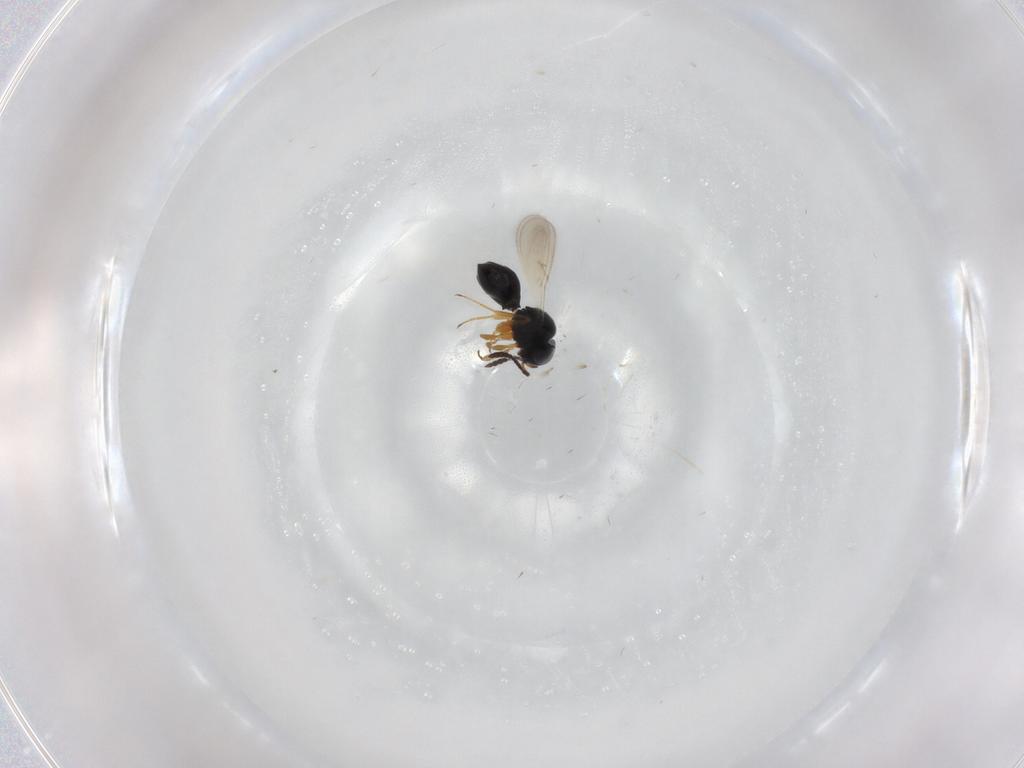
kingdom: Animalia
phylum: Arthropoda
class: Insecta
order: Hymenoptera
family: Scelionidae
